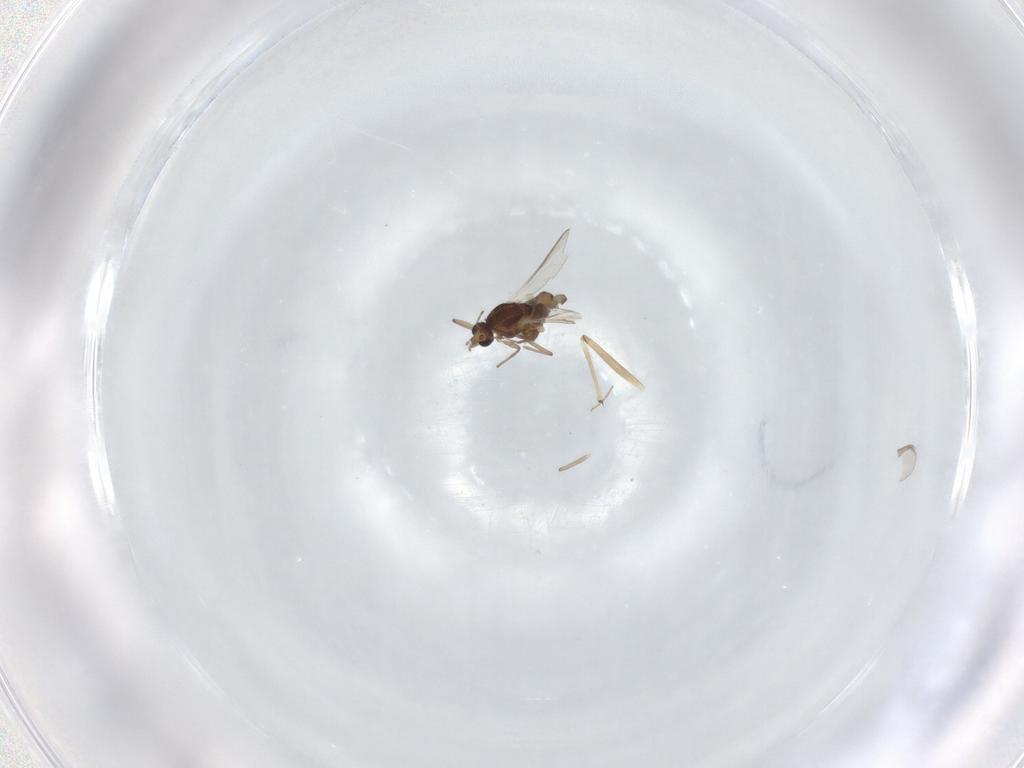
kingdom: Animalia
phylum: Arthropoda
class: Insecta
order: Diptera
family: Chironomidae
